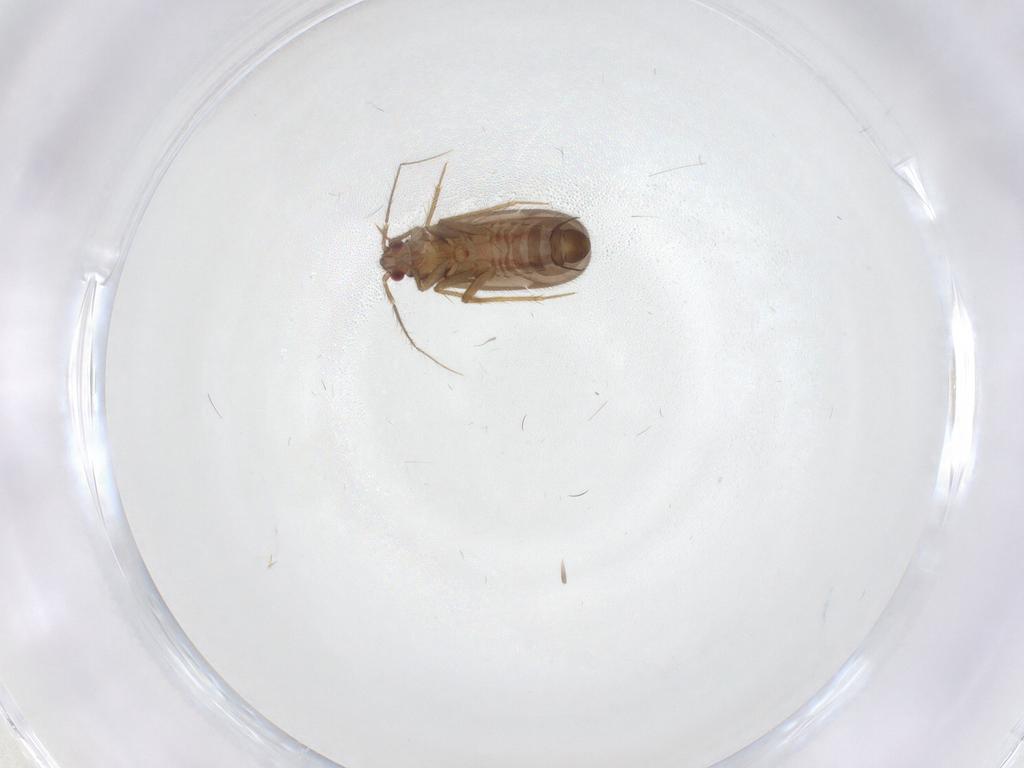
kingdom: Animalia
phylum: Arthropoda
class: Insecta
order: Hemiptera
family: Ceratocombidae
